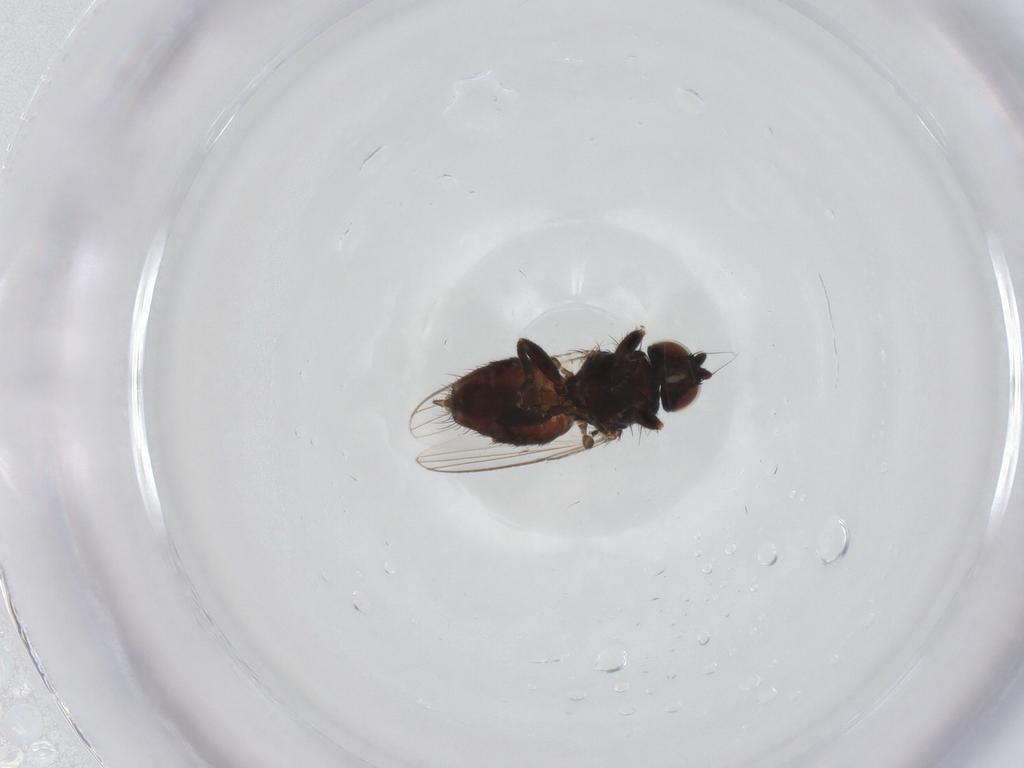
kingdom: Animalia
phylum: Arthropoda
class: Insecta
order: Diptera
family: Milichiidae
